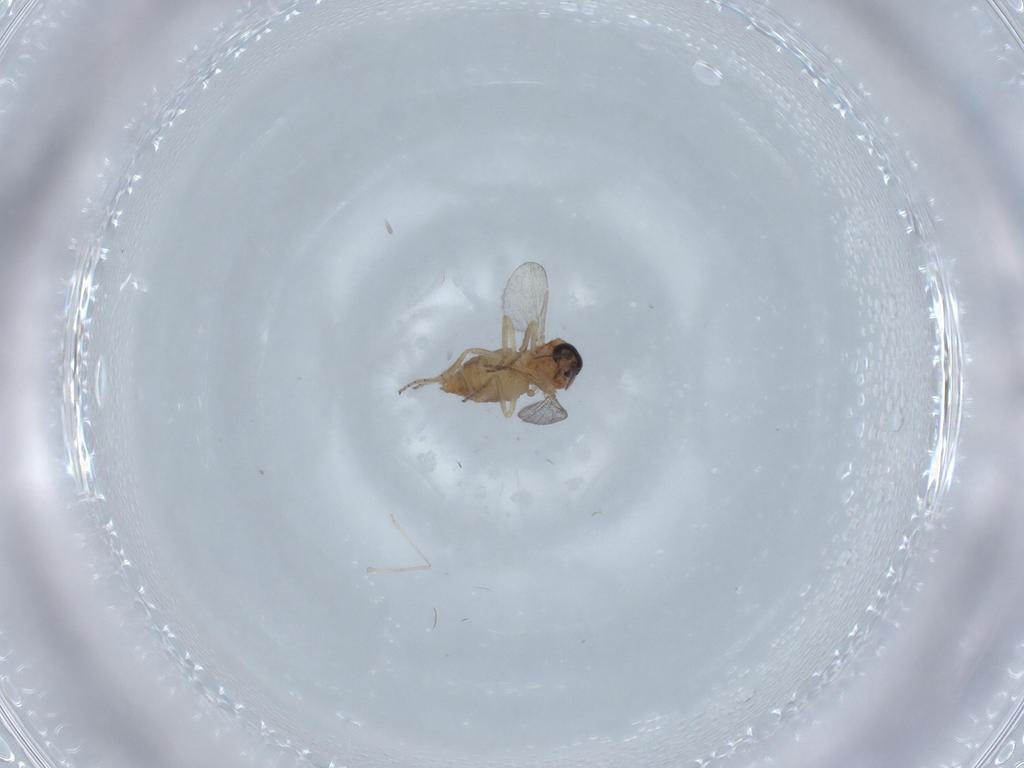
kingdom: Animalia
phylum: Arthropoda
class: Insecta
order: Diptera
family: Ceratopogonidae
